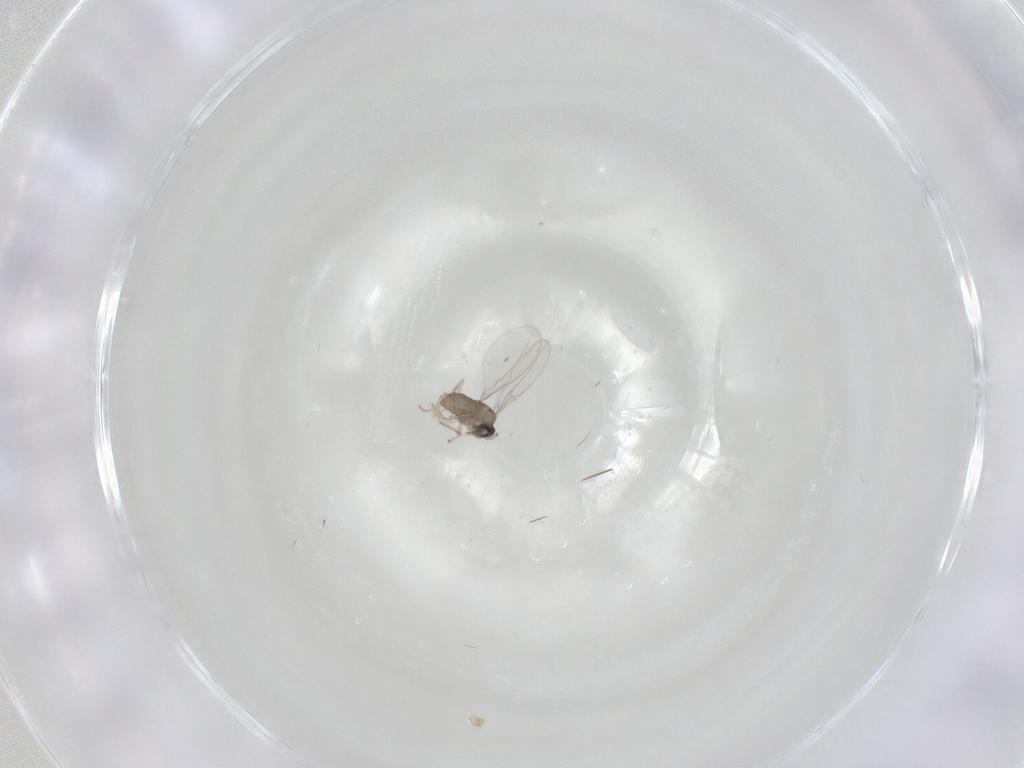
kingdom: Animalia
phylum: Arthropoda
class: Insecta
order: Diptera
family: Cecidomyiidae
